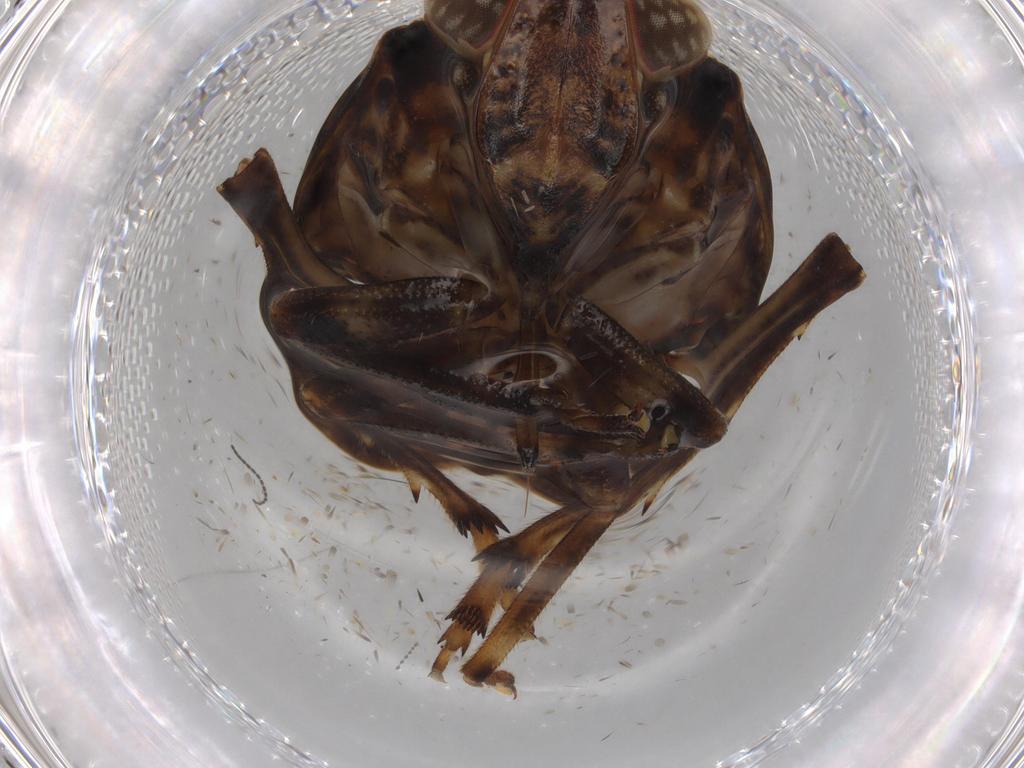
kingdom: Animalia
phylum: Arthropoda
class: Insecta
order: Hemiptera
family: Issidae
